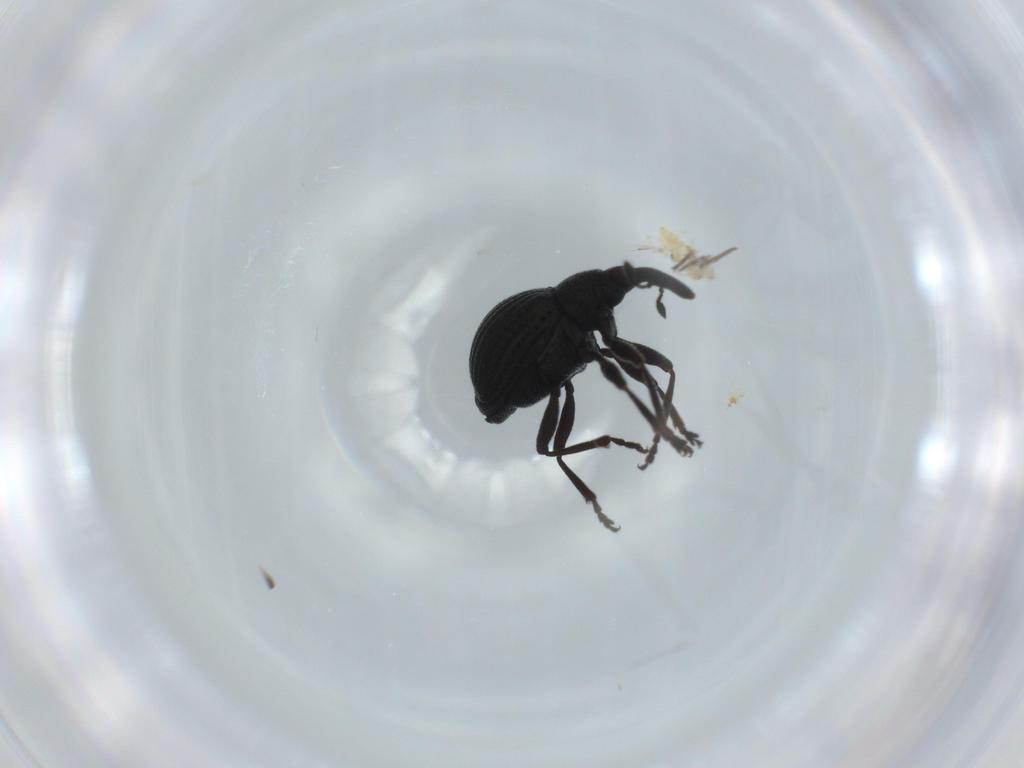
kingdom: Animalia
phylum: Arthropoda
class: Insecta
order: Coleoptera
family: Brentidae
